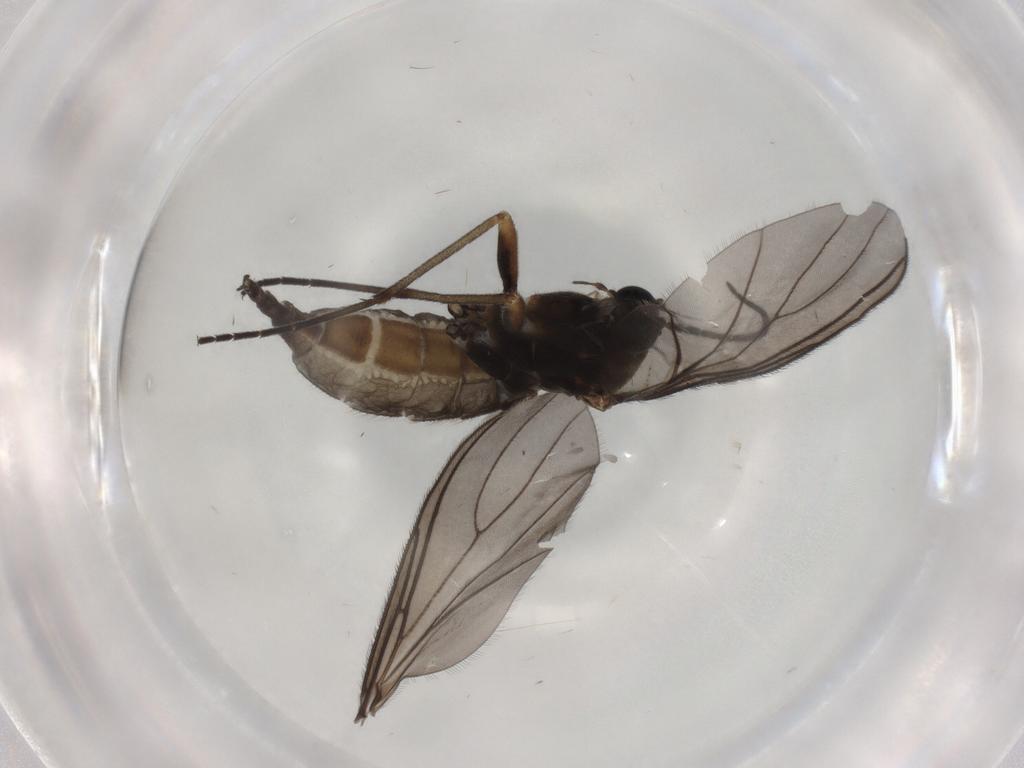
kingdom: Animalia
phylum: Arthropoda
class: Insecta
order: Diptera
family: Sciaridae
